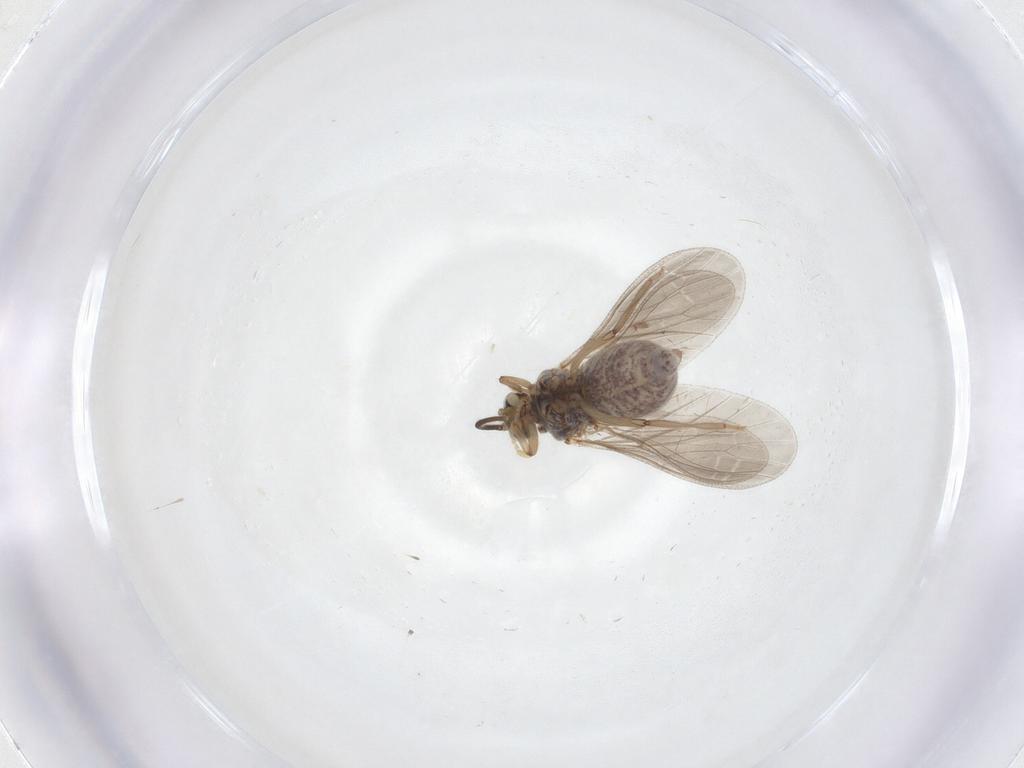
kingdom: Animalia
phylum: Arthropoda
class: Insecta
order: Neuroptera
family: Coniopterygidae
